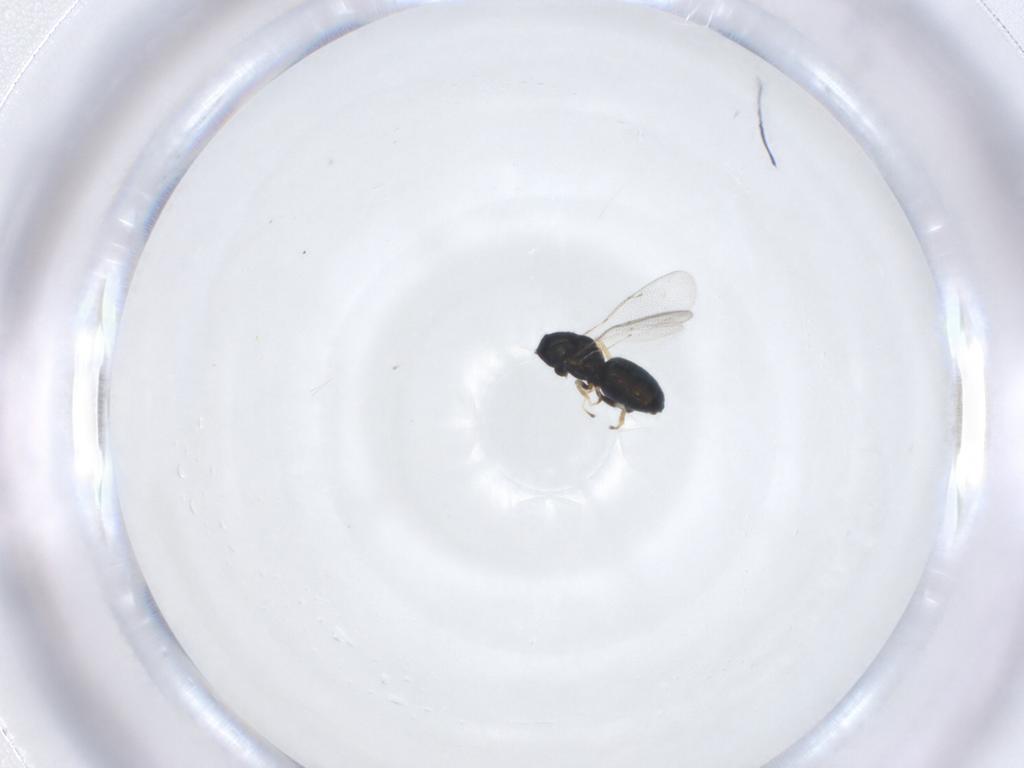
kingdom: Animalia
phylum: Arthropoda
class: Insecta
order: Hymenoptera
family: Eulophidae
